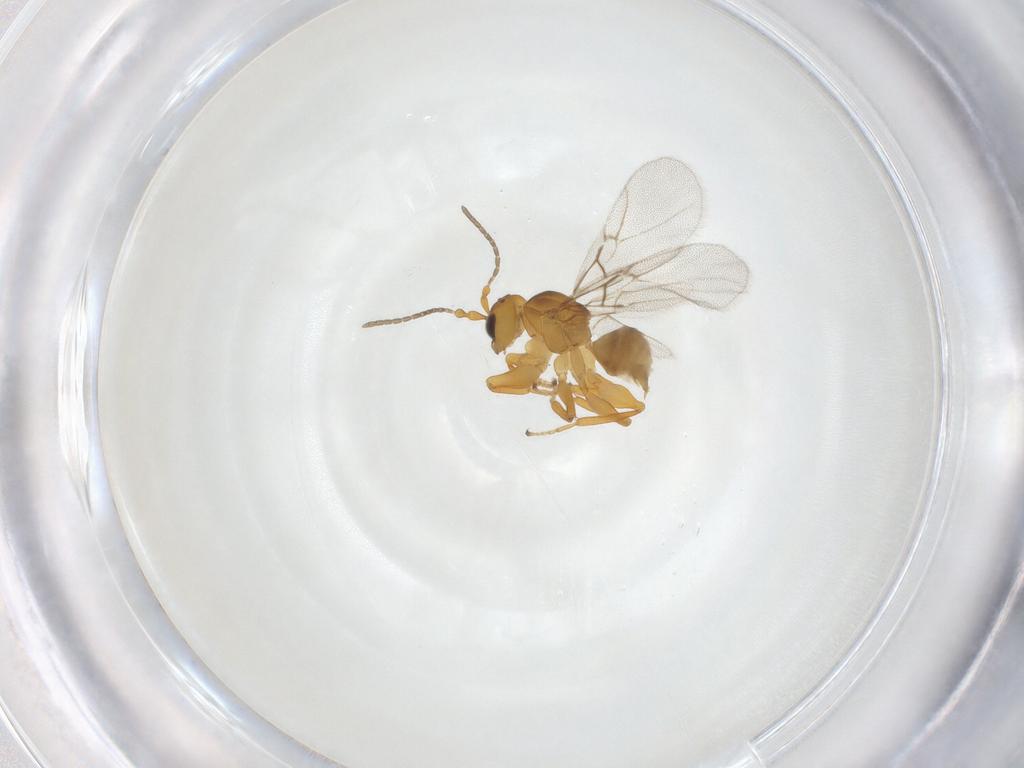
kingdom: Animalia
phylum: Arthropoda
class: Insecta
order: Hymenoptera
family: Cynipidae
